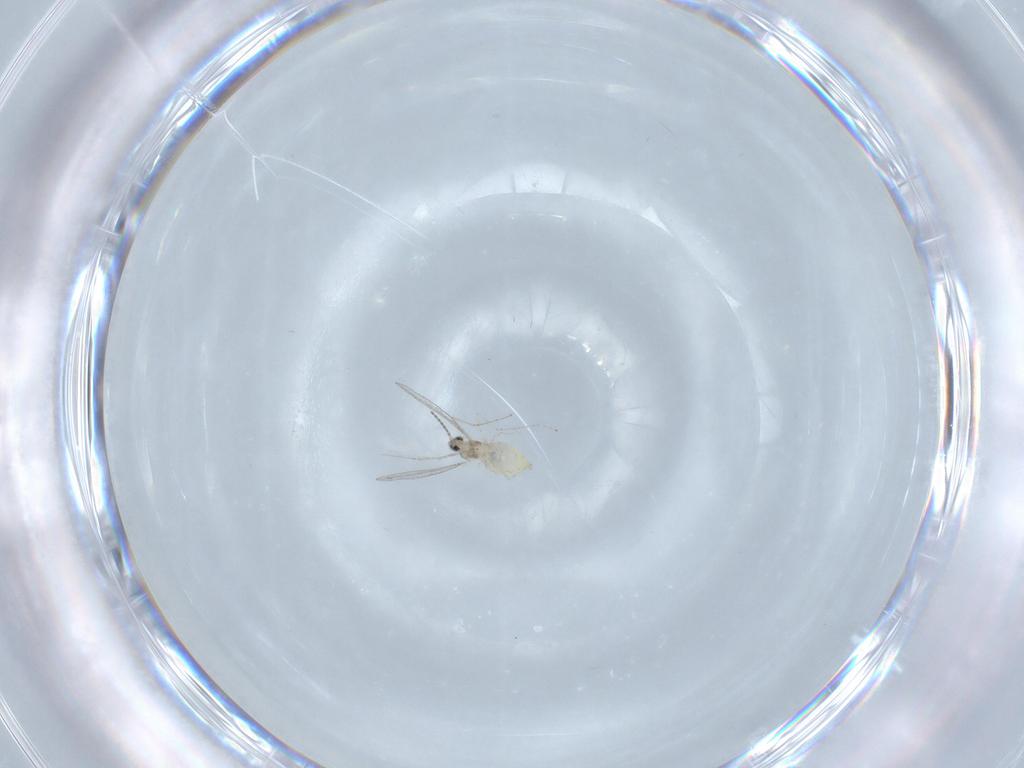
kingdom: Animalia
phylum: Arthropoda
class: Insecta
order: Diptera
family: Cecidomyiidae
